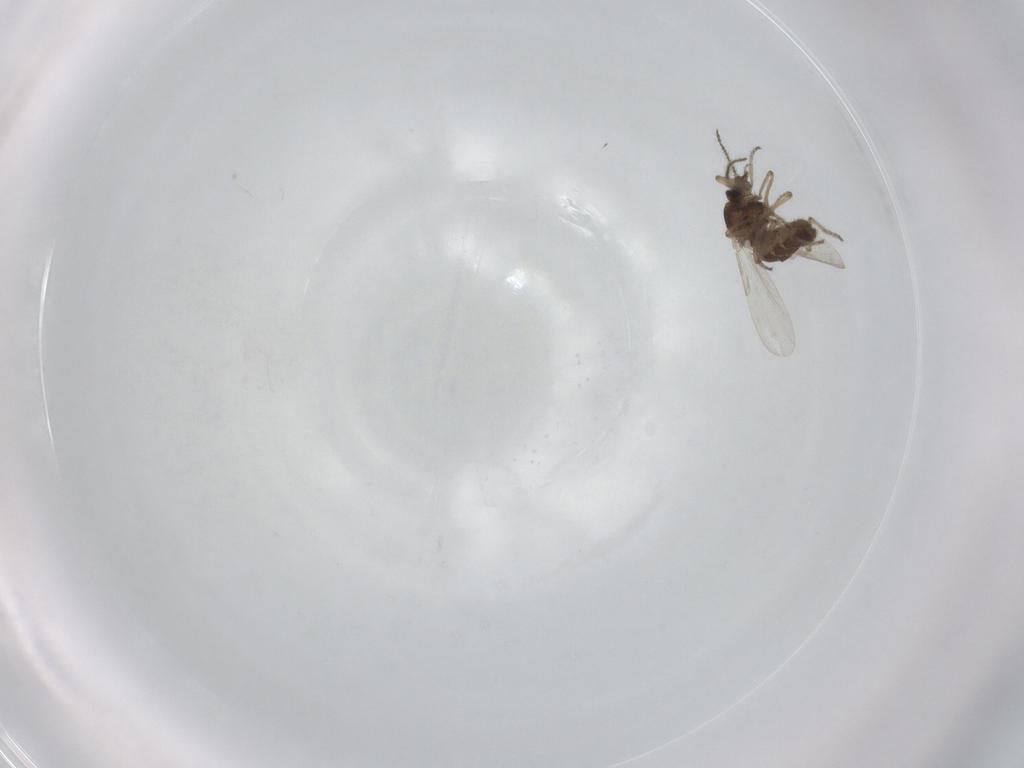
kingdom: Animalia
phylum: Arthropoda
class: Insecta
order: Diptera
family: Ceratopogonidae
